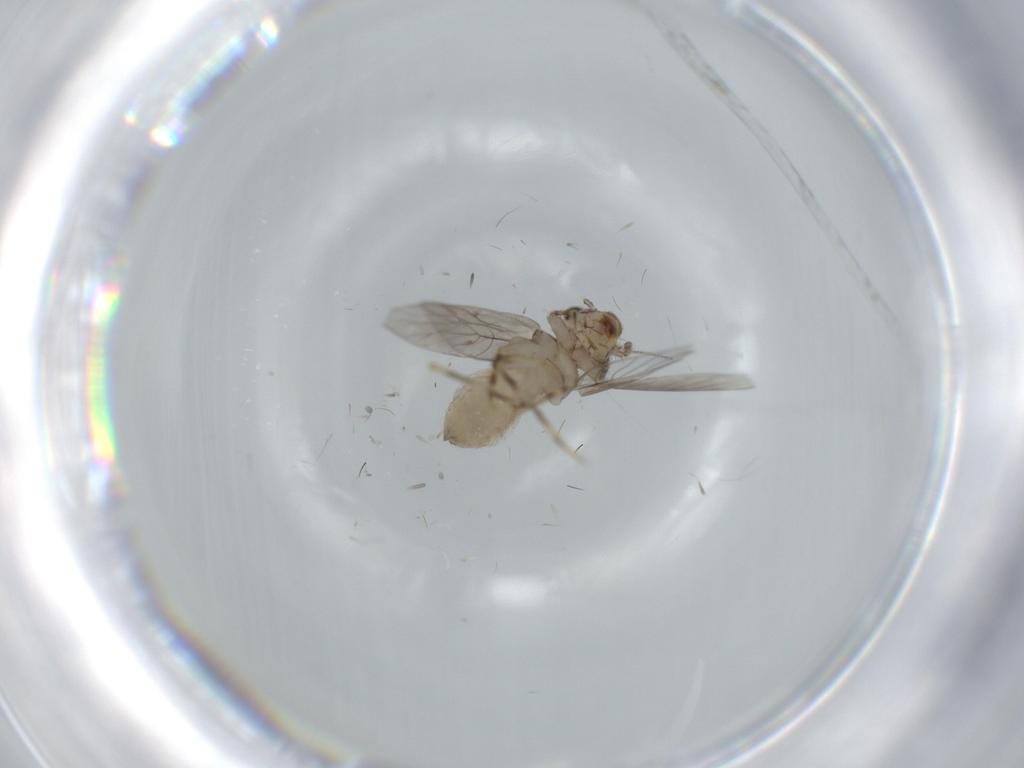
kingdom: Animalia
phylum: Arthropoda
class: Insecta
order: Psocodea
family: Lepidopsocidae
